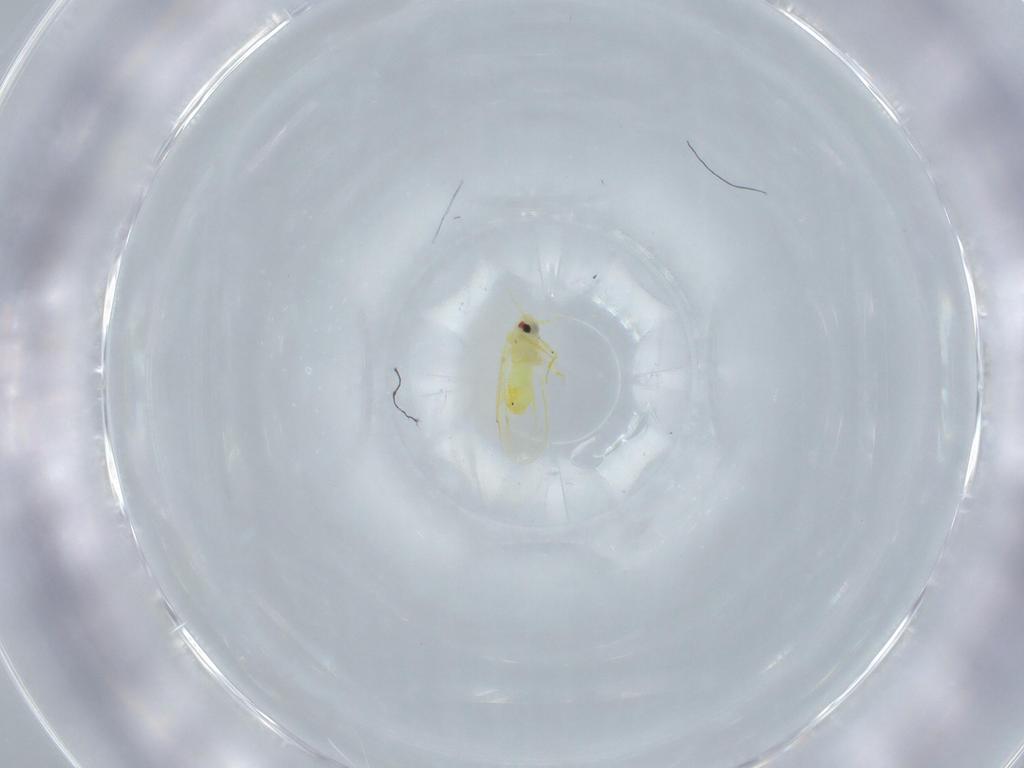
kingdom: Animalia
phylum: Arthropoda
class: Insecta
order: Hemiptera
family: Aleyrodidae
